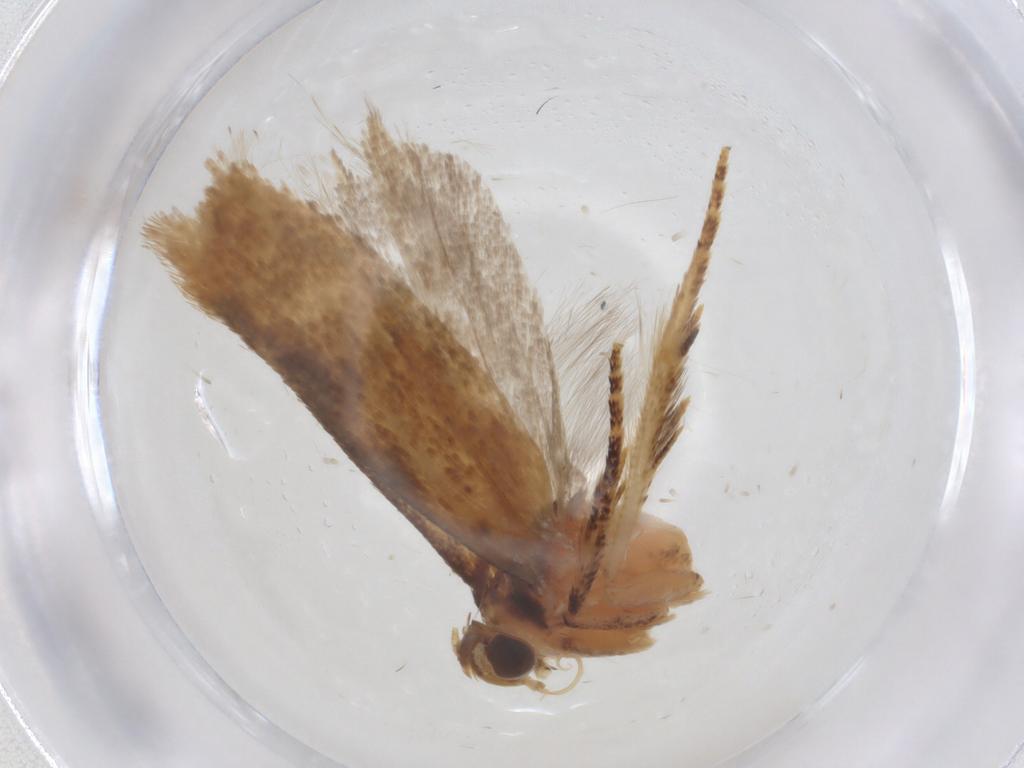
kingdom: Animalia
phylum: Arthropoda
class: Insecta
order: Lepidoptera
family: Gelechiidae
